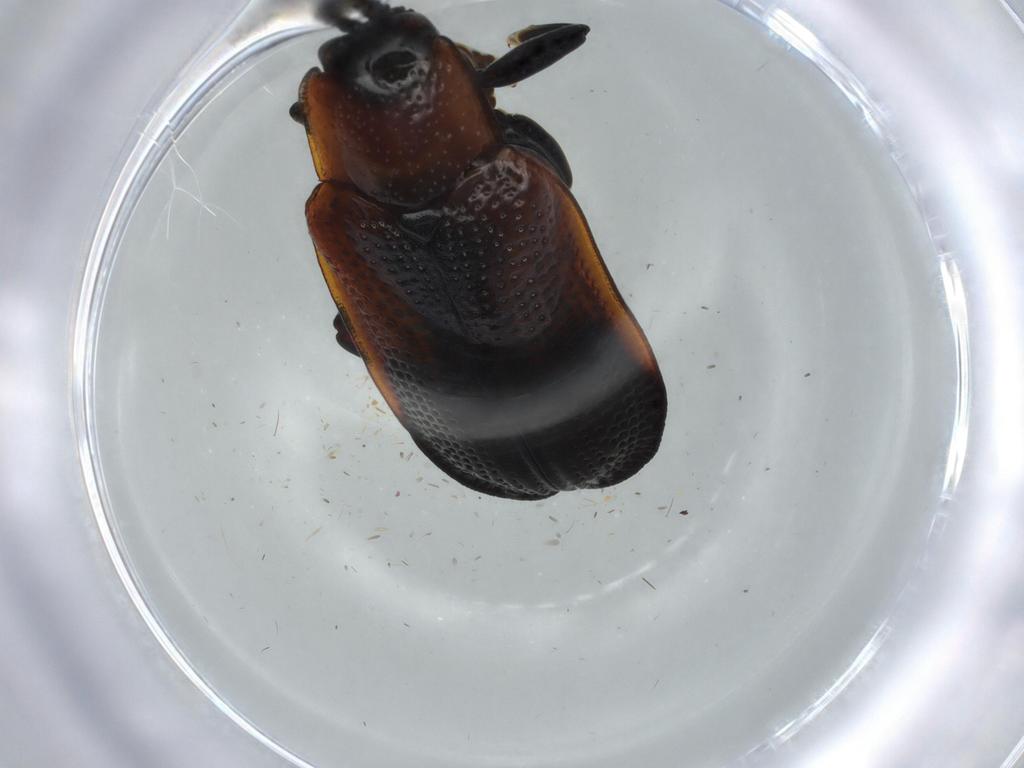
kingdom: Animalia
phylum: Arthropoda
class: Insecta
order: Coleoptera
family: Chrysomelidae
